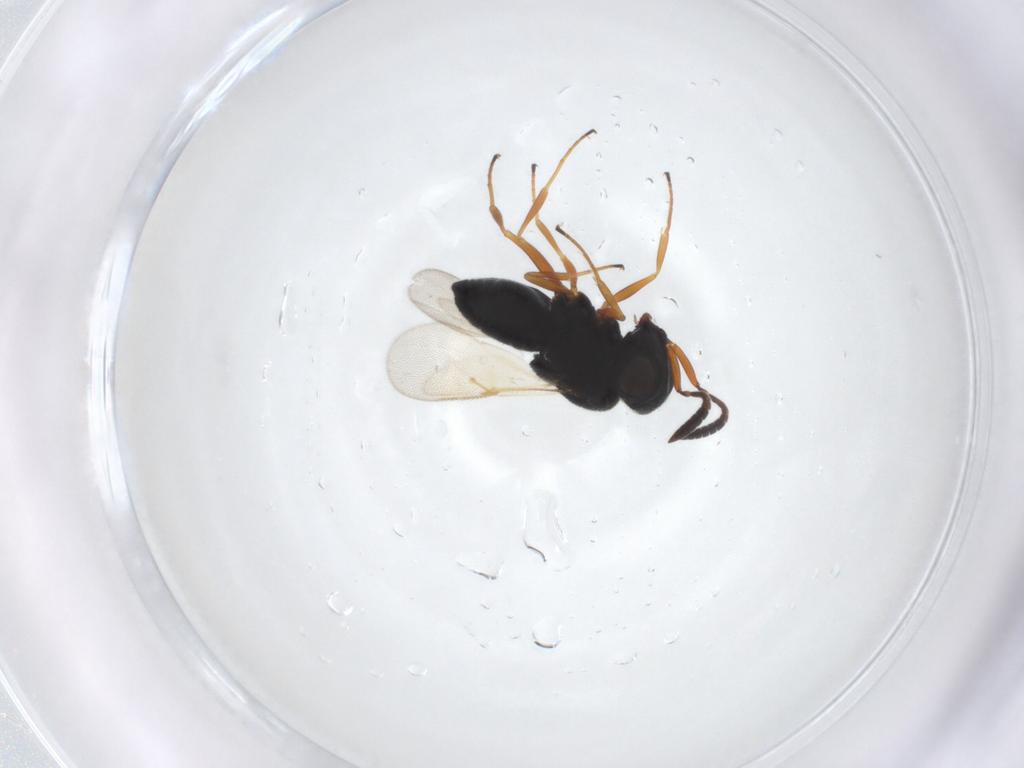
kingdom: Animalia
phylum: Arthropoda
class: Insecta
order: Hymenoptera
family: Scelionidae
